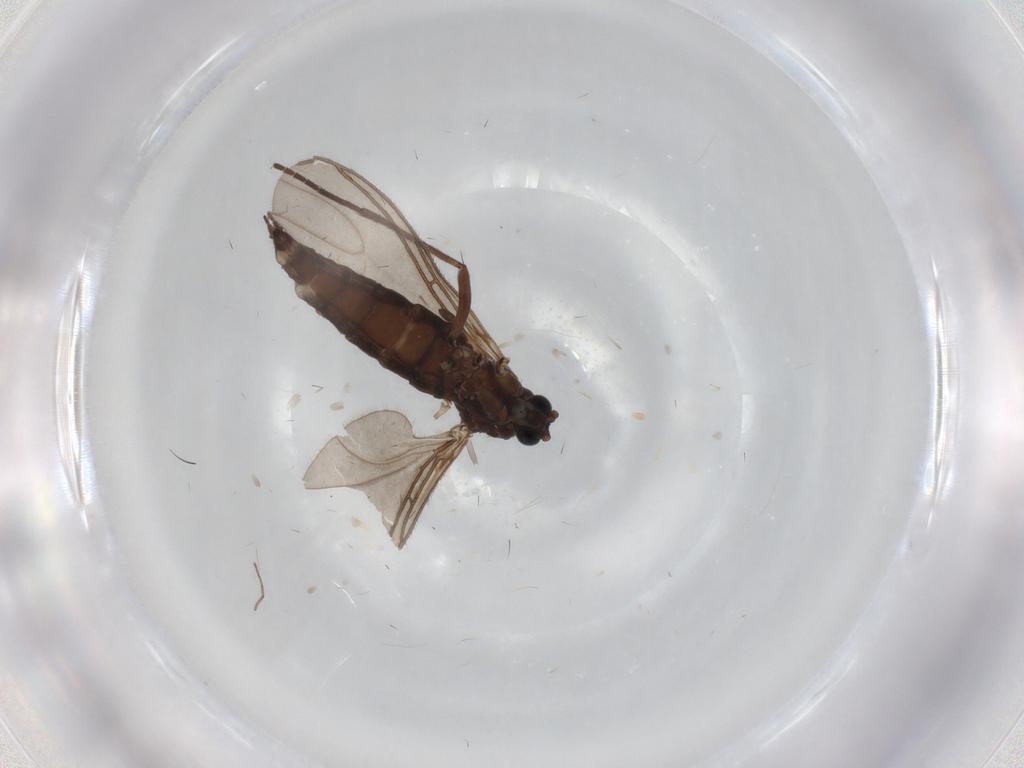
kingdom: Animalia
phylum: Arthropoda
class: Insecta
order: Diptera
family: Sciaridae
